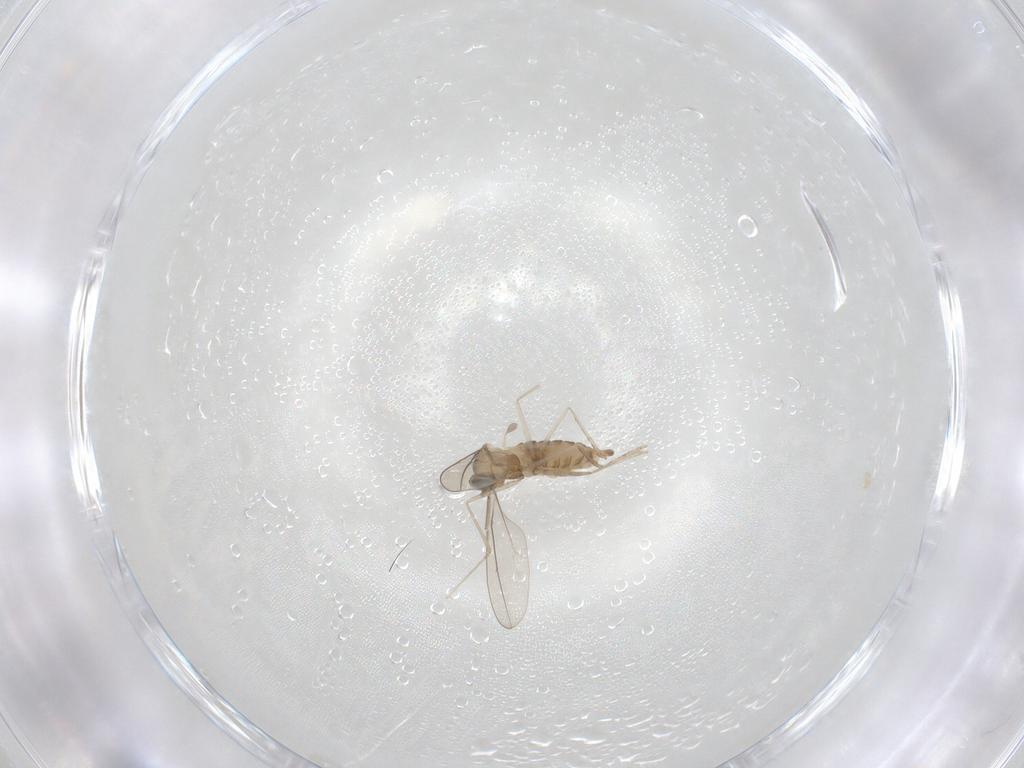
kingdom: Animalia
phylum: Arthropoda
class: Insecta
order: Diptera
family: Cecidomyiidae
